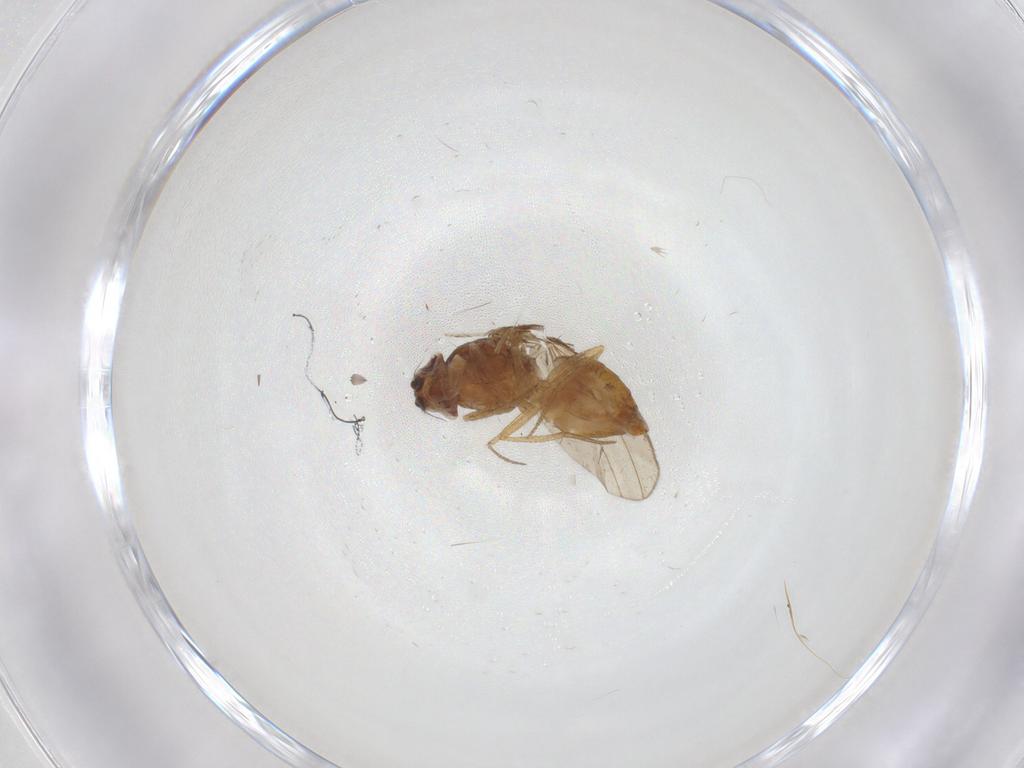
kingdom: Animalia
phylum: Arthropoda
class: Insecta
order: Diptera
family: Drosophilidae
